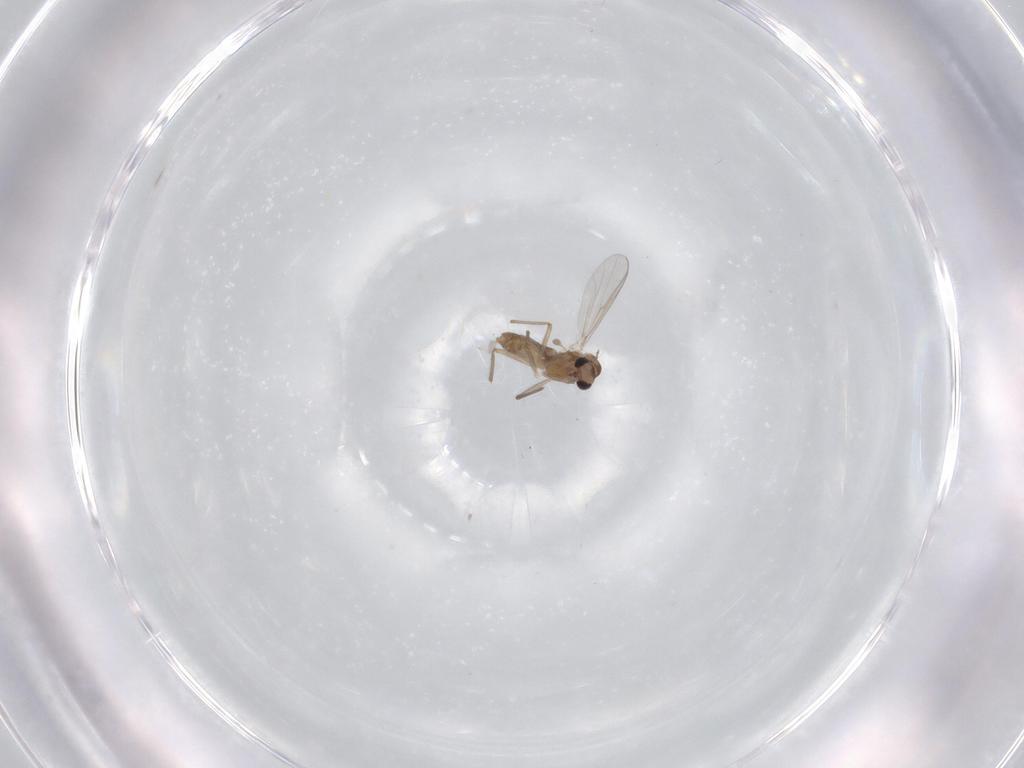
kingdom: Animalia
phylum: Arthropoda
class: Insecta
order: Diptera
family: Chironomidae
